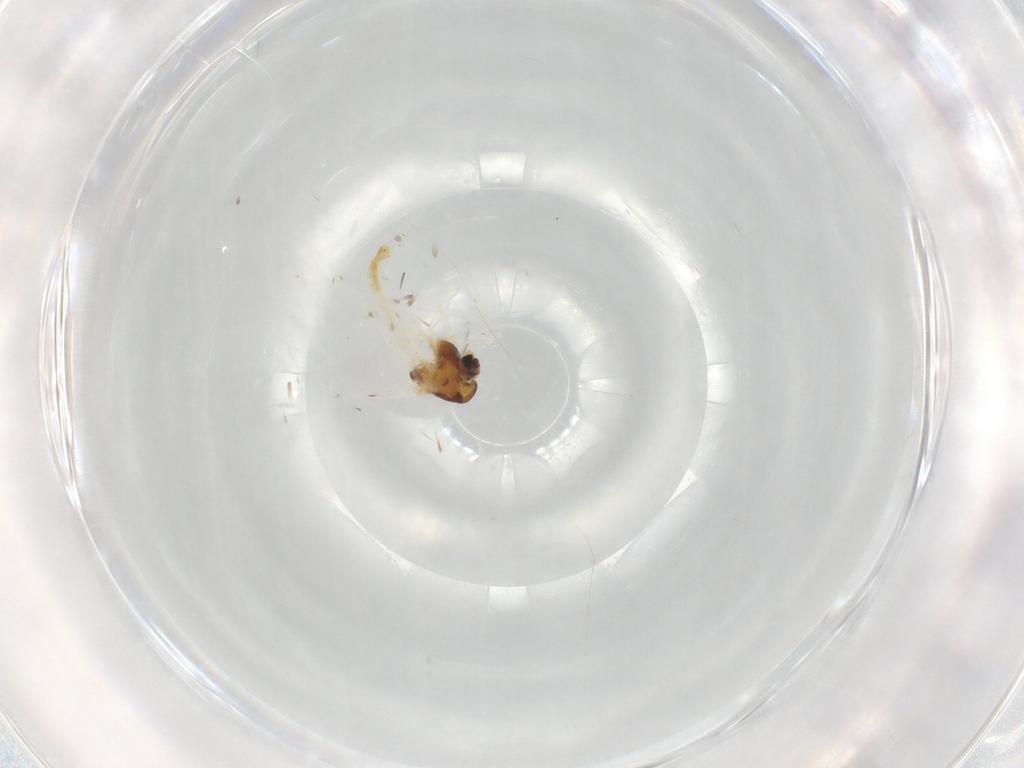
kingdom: Animalia
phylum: Arthropoda
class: Insecta
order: Diptera
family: Chironomidae
